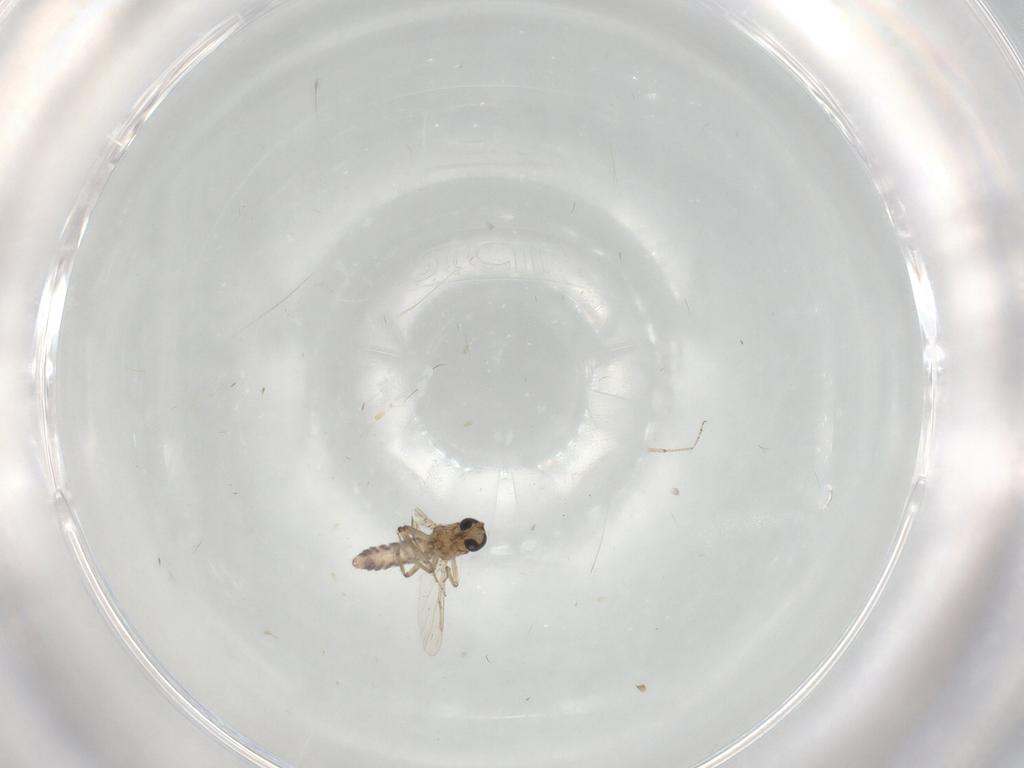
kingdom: Animalia
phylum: Arthropoda
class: Insecta
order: Diptera
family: Ceratopogonidae
